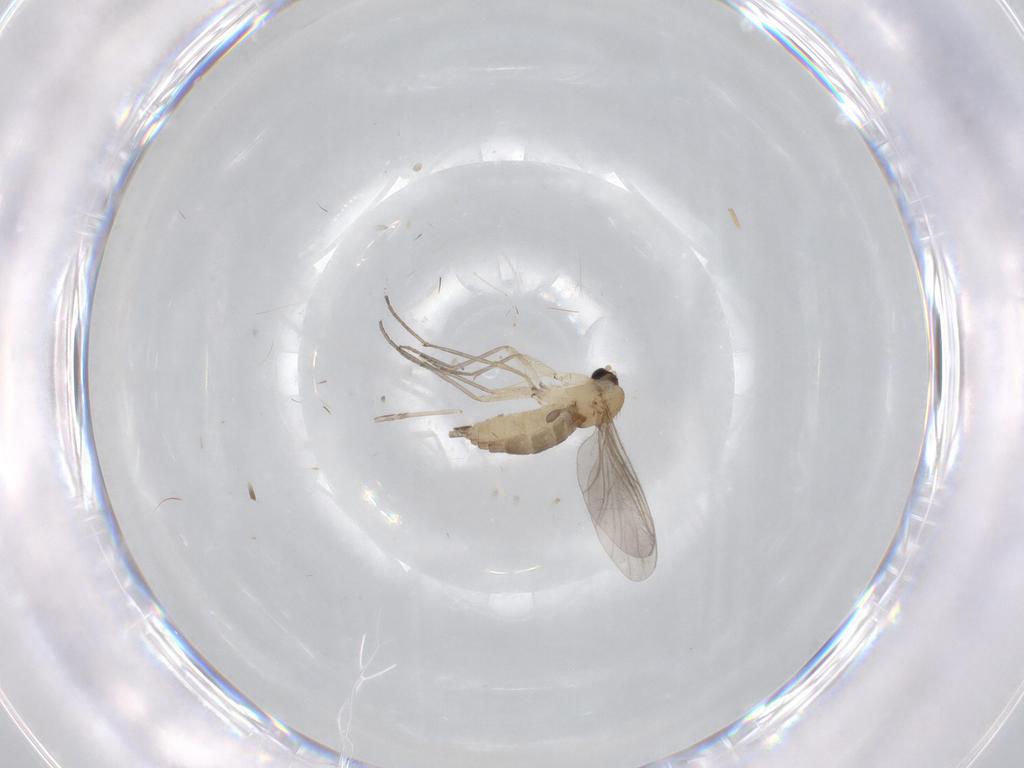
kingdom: Animalia
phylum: Arthropoda
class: Insecta
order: Diptera
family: Sciaridae
